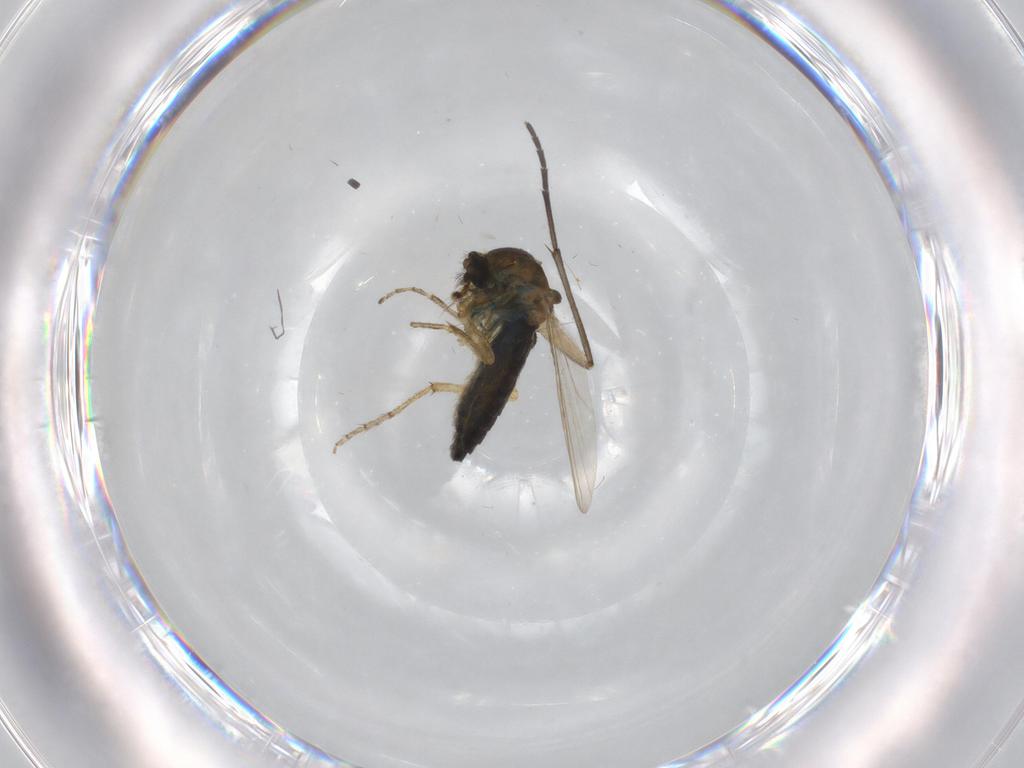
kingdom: Animalia
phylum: Arthropoda
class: Insecta
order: Diptera
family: Ceratopogonidae
